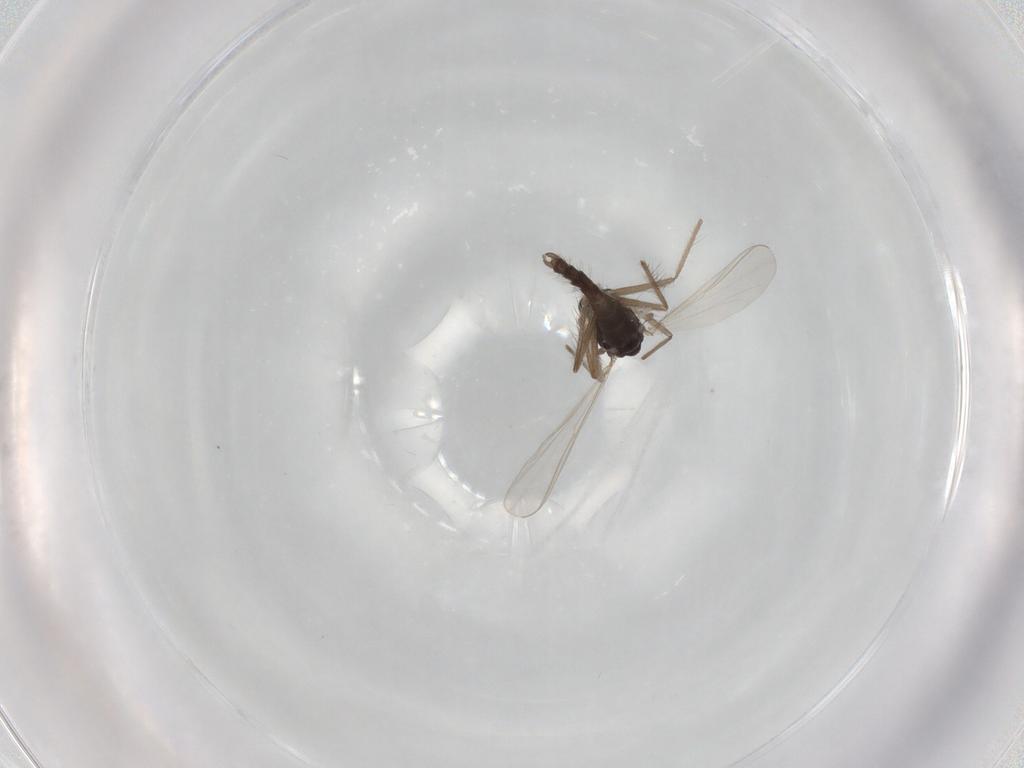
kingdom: Animalia
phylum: Arthropoda
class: Insecta
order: Diptera
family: Chironomidae
